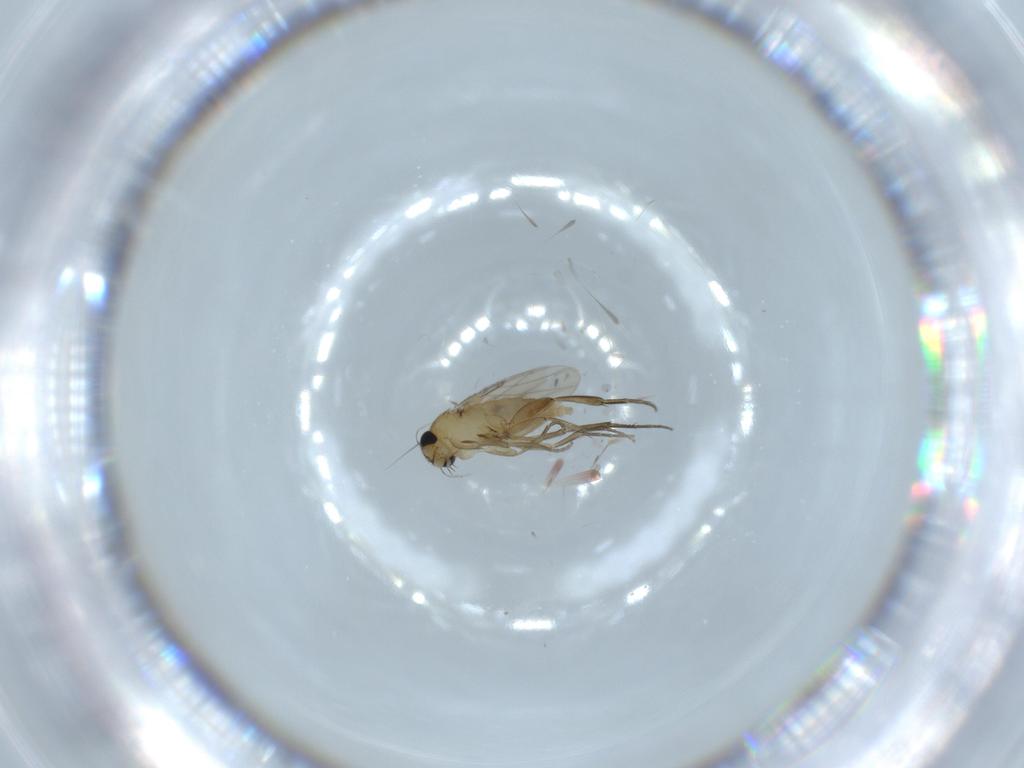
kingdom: Animalia
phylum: Arthropoda
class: Insecta
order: Diptera
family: Phoridae
